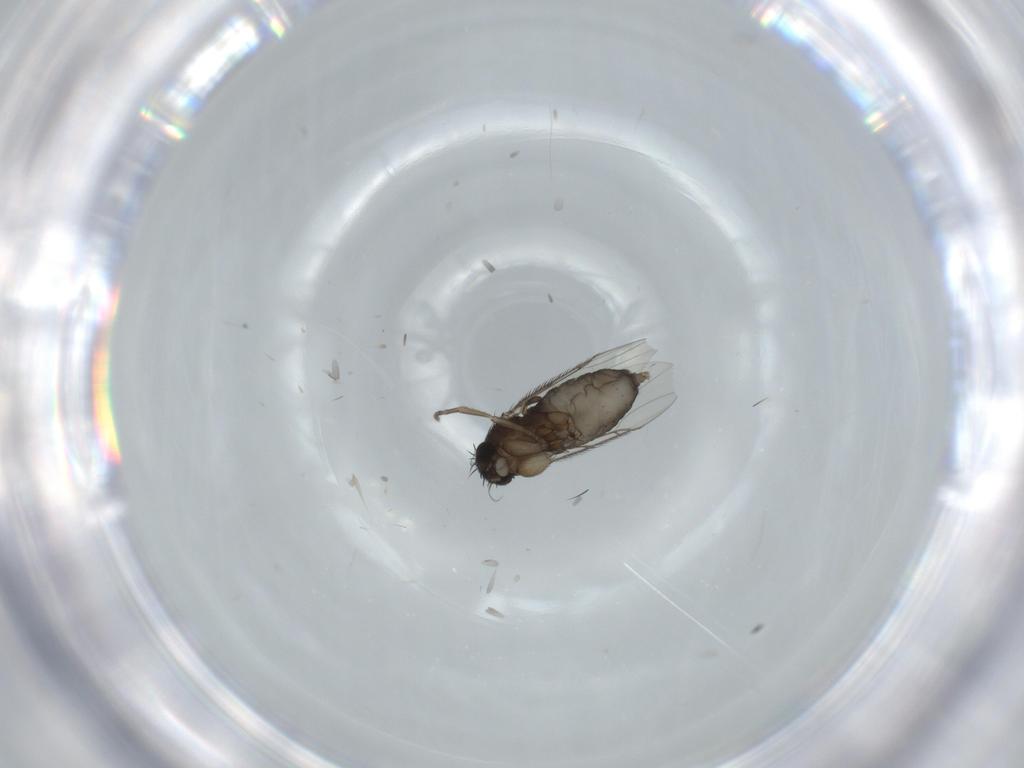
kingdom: Animalia
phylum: Arthropoda
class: Insecta
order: Diptera
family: Phoridae
